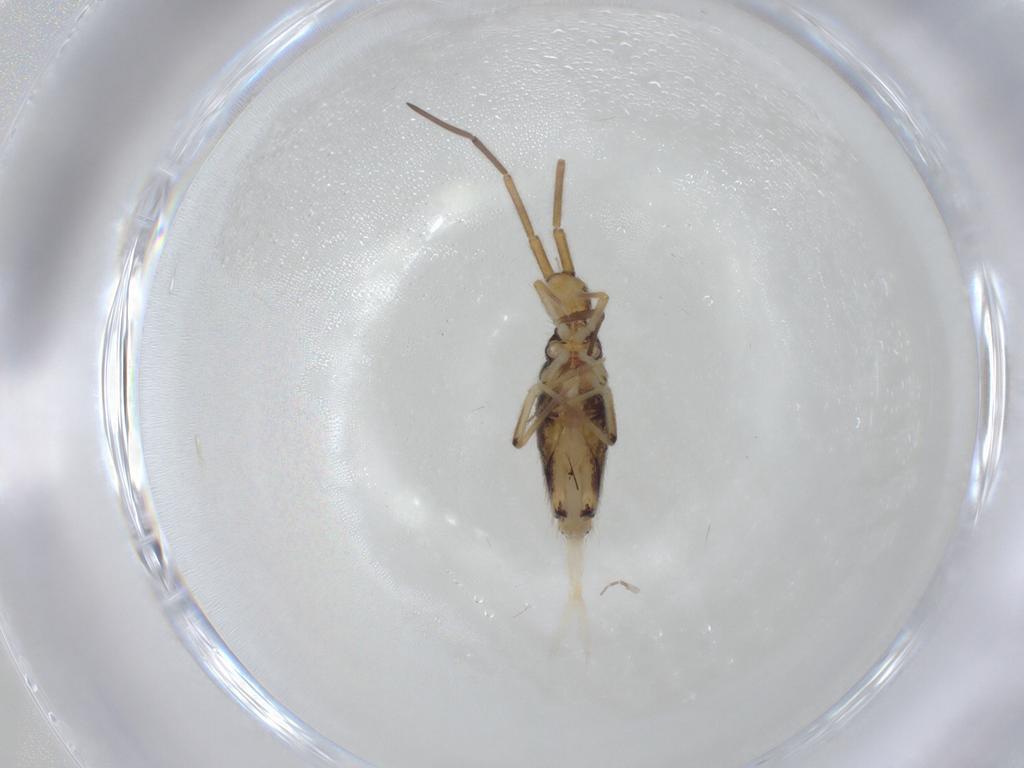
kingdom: Animalia
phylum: Arthropoda
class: Collembola
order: Entomobryomorpha
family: Entomobryidae
